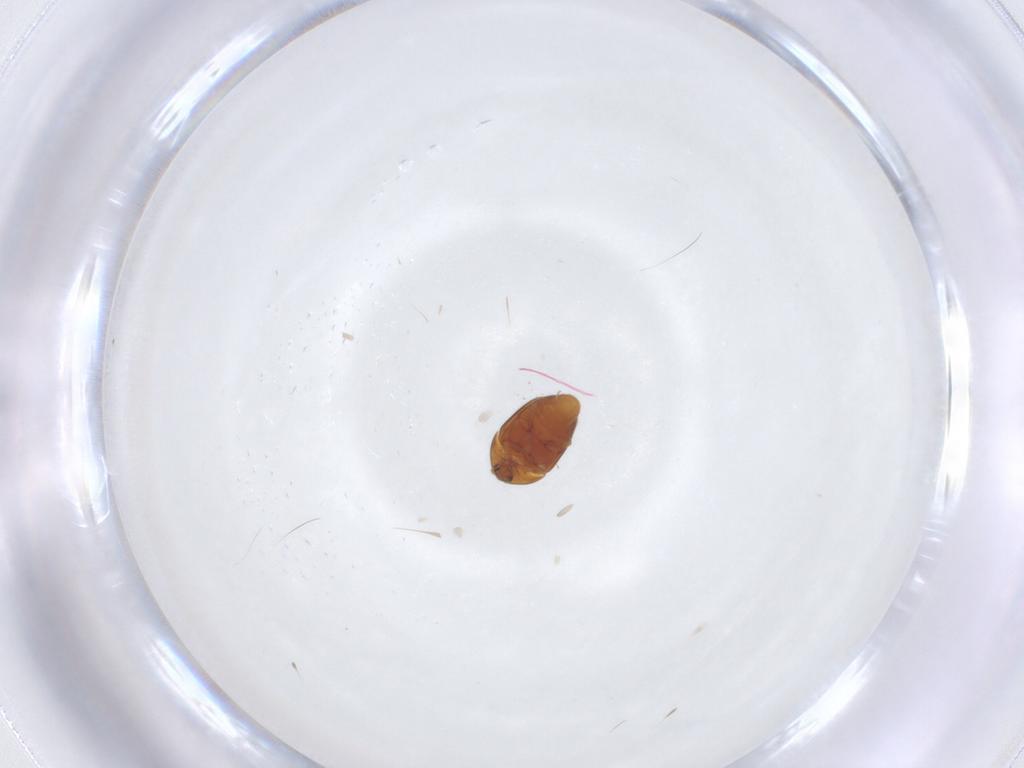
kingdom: Animalia
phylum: Arthropoda
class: Insecta
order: Coleoptera
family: Corylophidae
